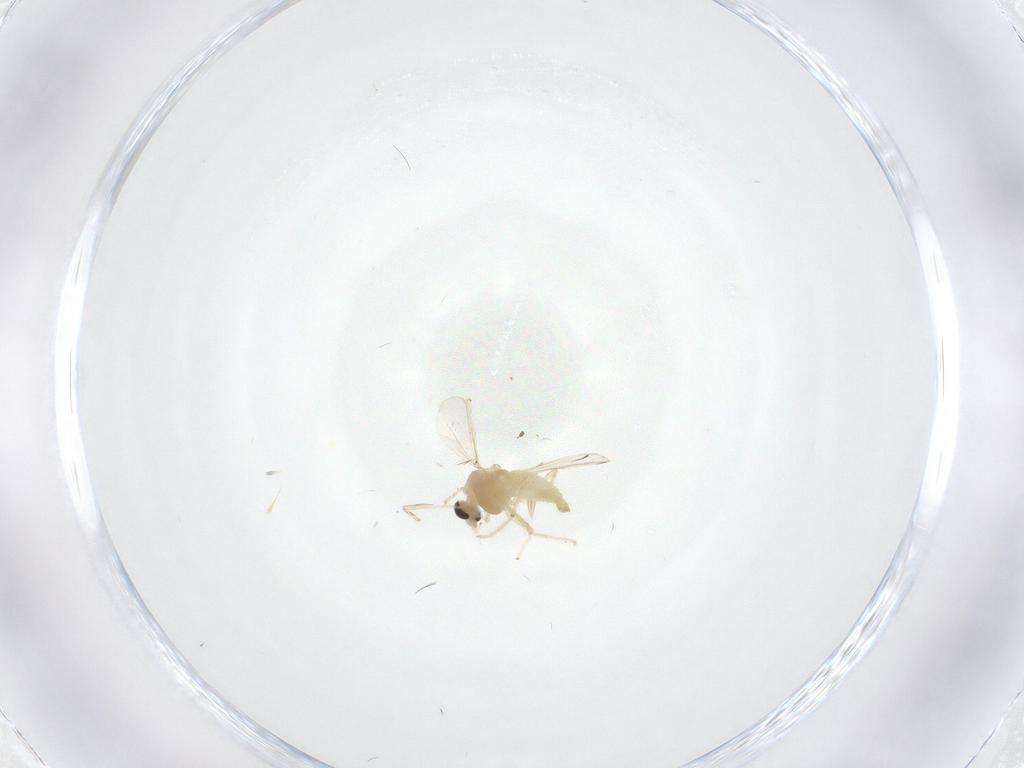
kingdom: Animalia
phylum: Arthropoda
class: Insecta
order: Diptera
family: Chironomidae
